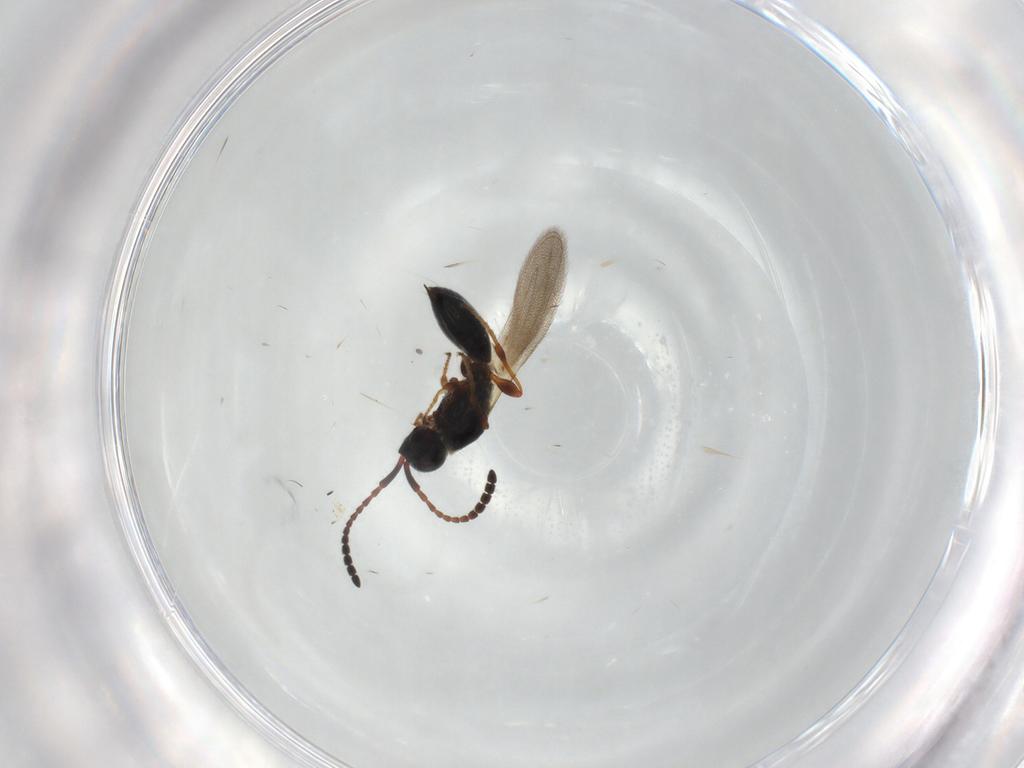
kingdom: Animalia
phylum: Arthropoda
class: Insecta
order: Hymenoptera
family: Diapriidae
